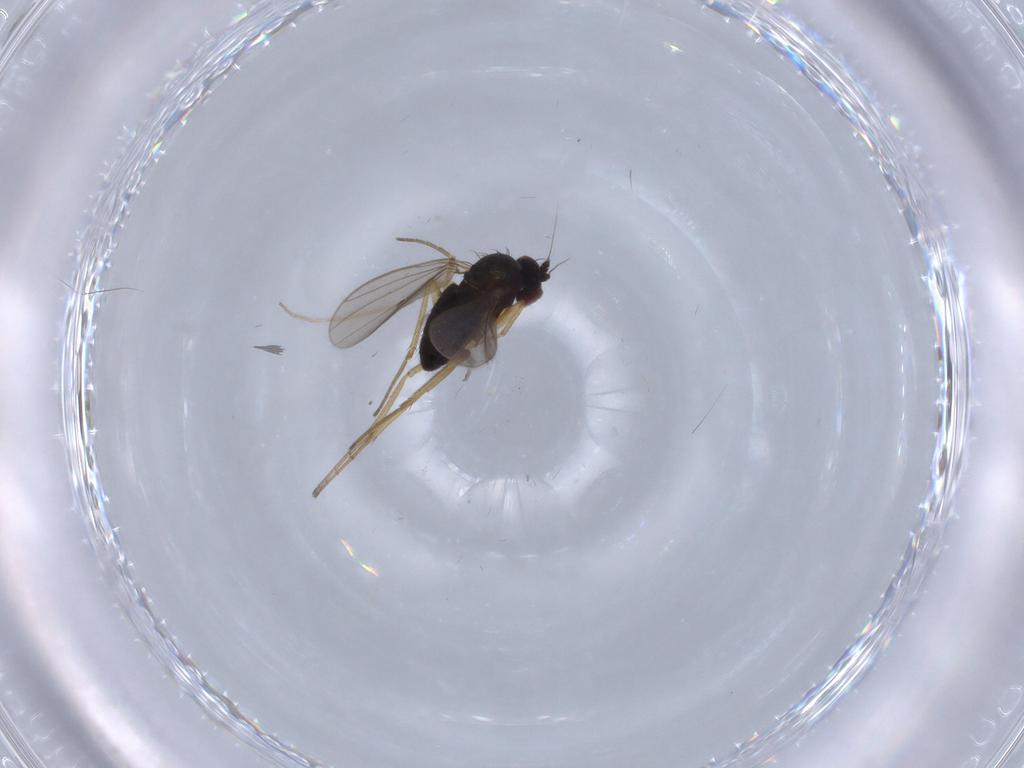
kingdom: Animalia
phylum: Arthropoda
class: Insecta
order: Diptera
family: Dolichopodidae
